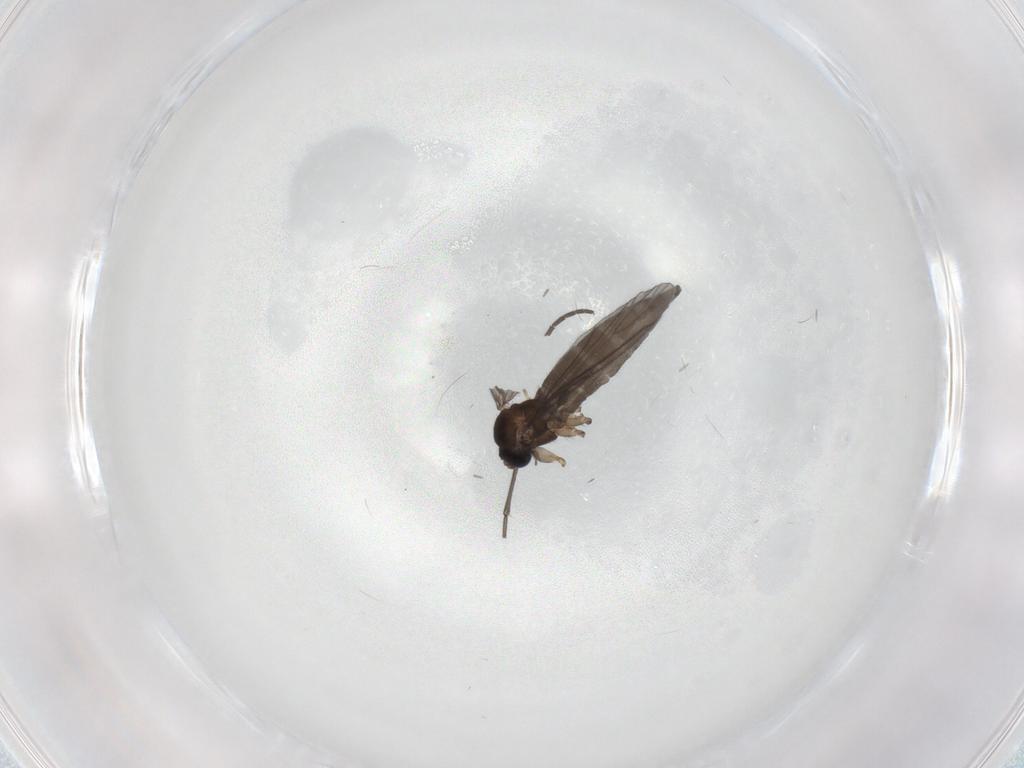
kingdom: Animalia
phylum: Arthropoda
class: Insecta
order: Diptera
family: Sciaridae
